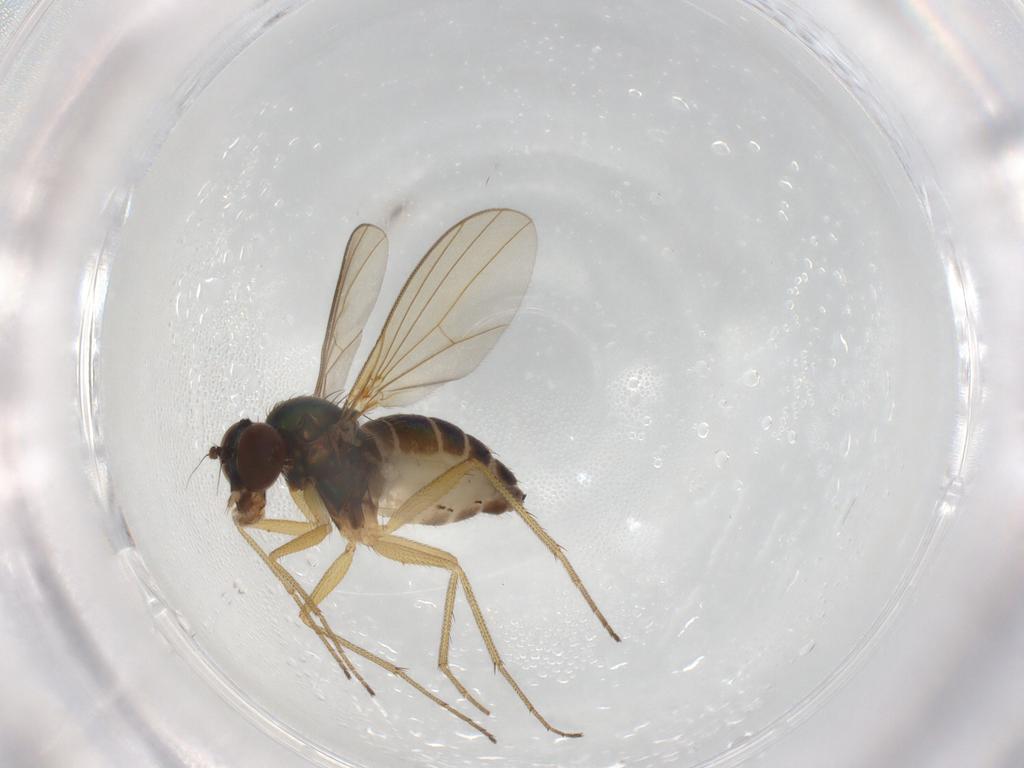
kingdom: Animalia
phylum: Arthropoda
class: Insecta
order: Diptera
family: Dolichopodidae
